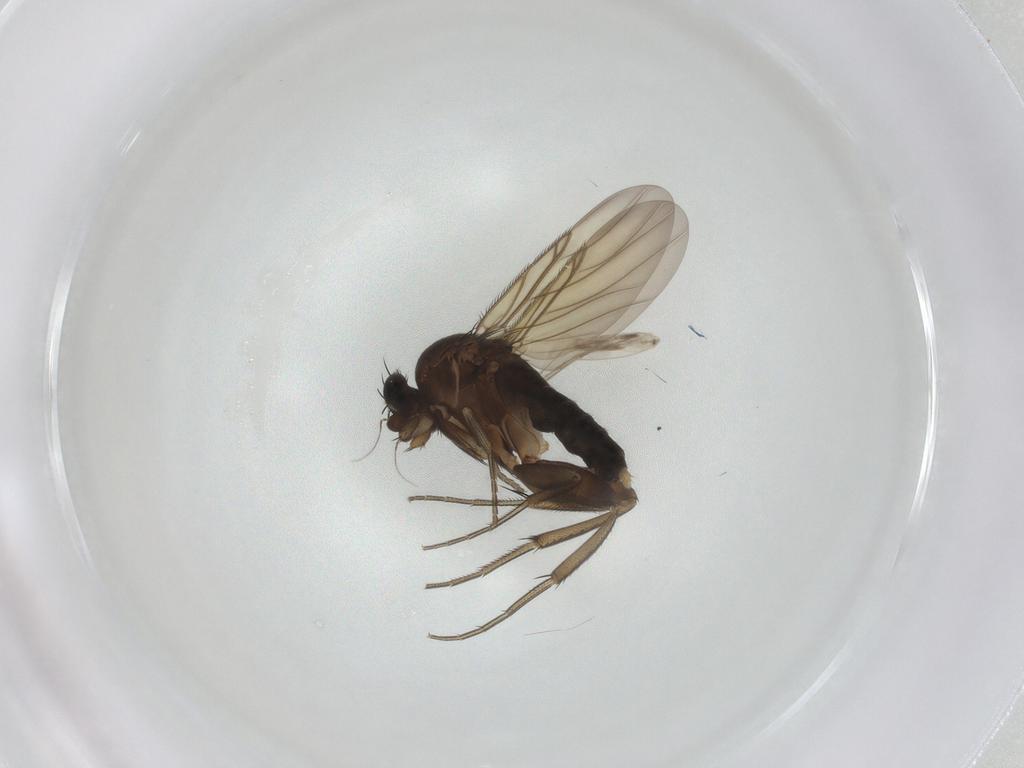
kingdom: Animalia
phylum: Arthropoda
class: Insecta
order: Diptera
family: Phoridae
